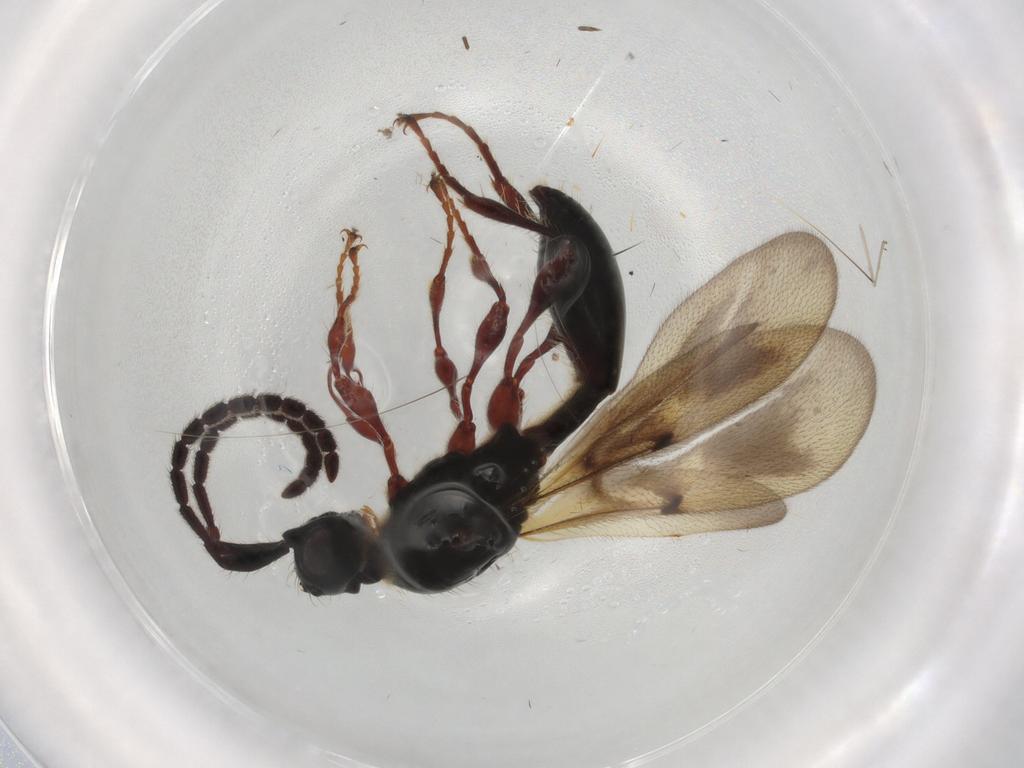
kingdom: Animalia
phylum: Arthropoda
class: Insecta
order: Hymenoptera
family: Diapriidae
